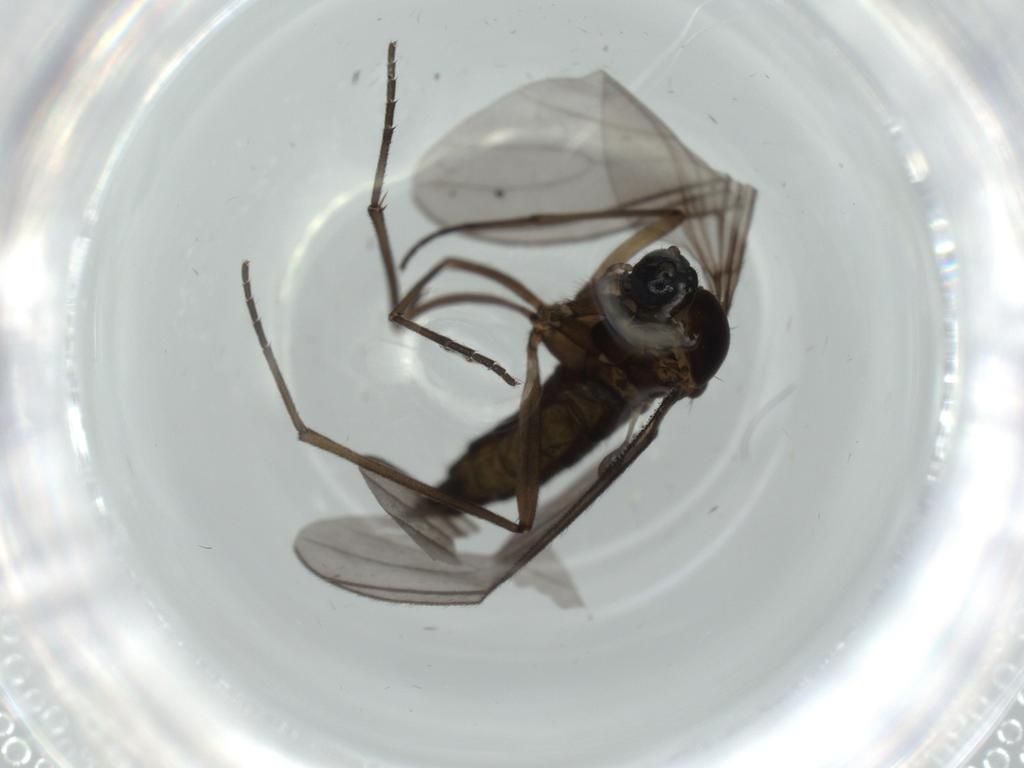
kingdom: Animalia
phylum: Arthropoda
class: Insecta
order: Diptera
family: Sciaridae
